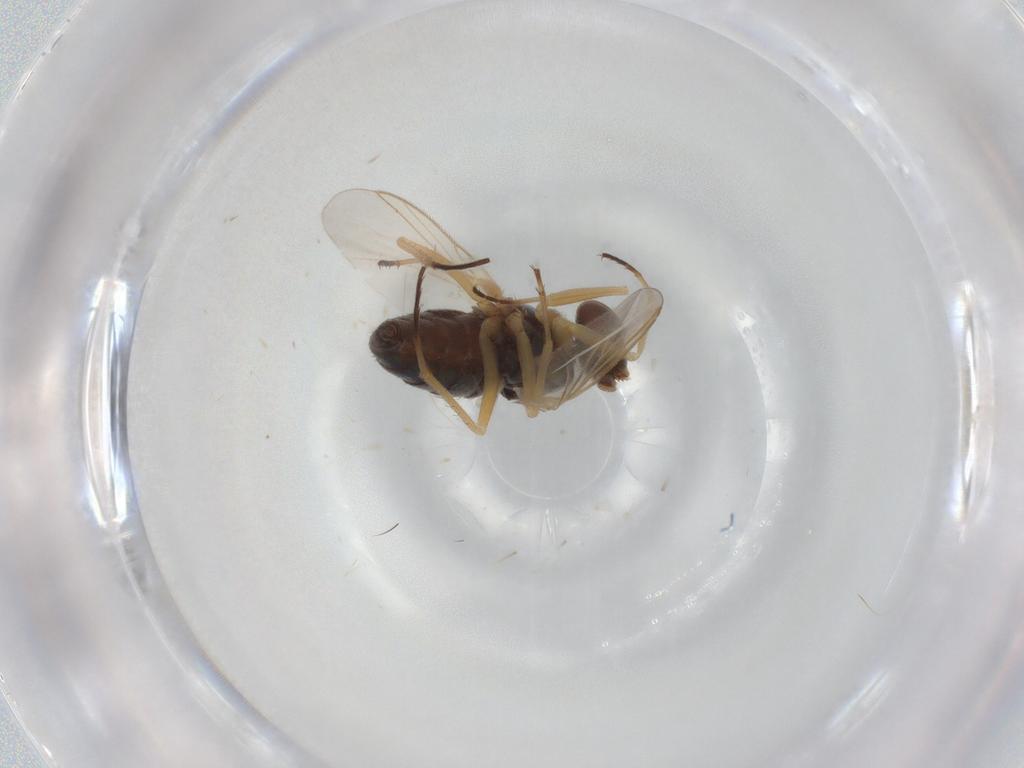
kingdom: Animalia
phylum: Arthropoda
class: Insecta
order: Diptera
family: Dolichopodidae
